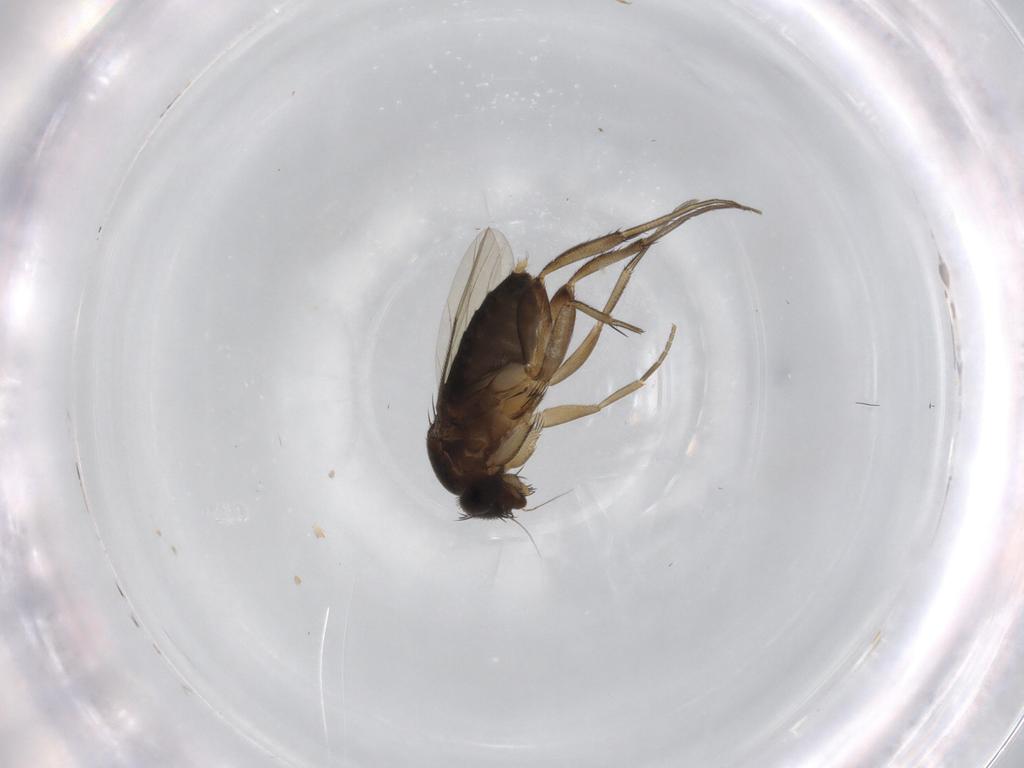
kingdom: Animalia
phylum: Arthropoda
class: Insecta
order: Diptera
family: Phoridae
